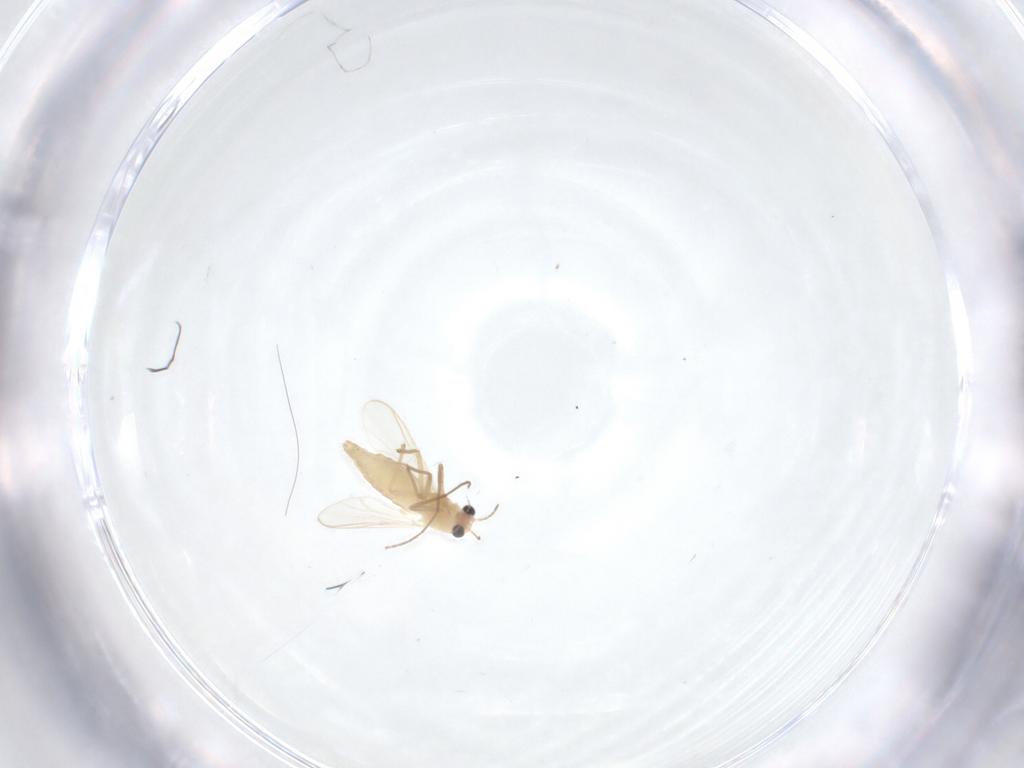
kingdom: Animalia
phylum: Arthropoda
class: Insecta
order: Diptera
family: Chironomidae
